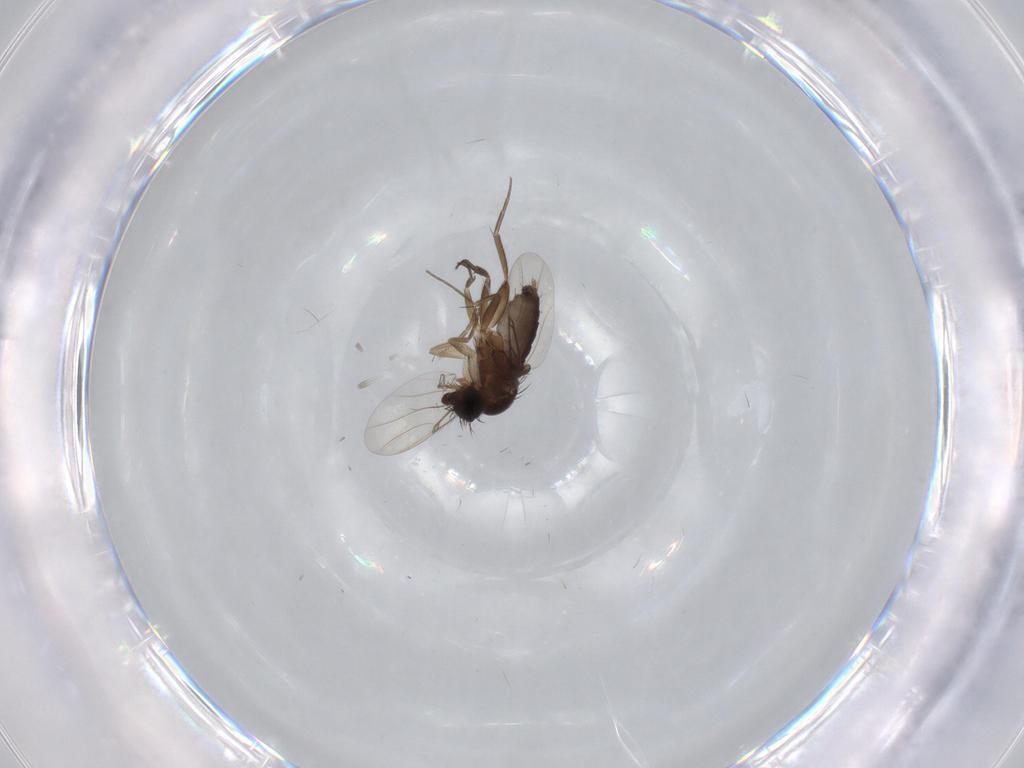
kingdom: Animalia
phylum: Arthropoda
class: Insecta
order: Diptera
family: Phoridae
